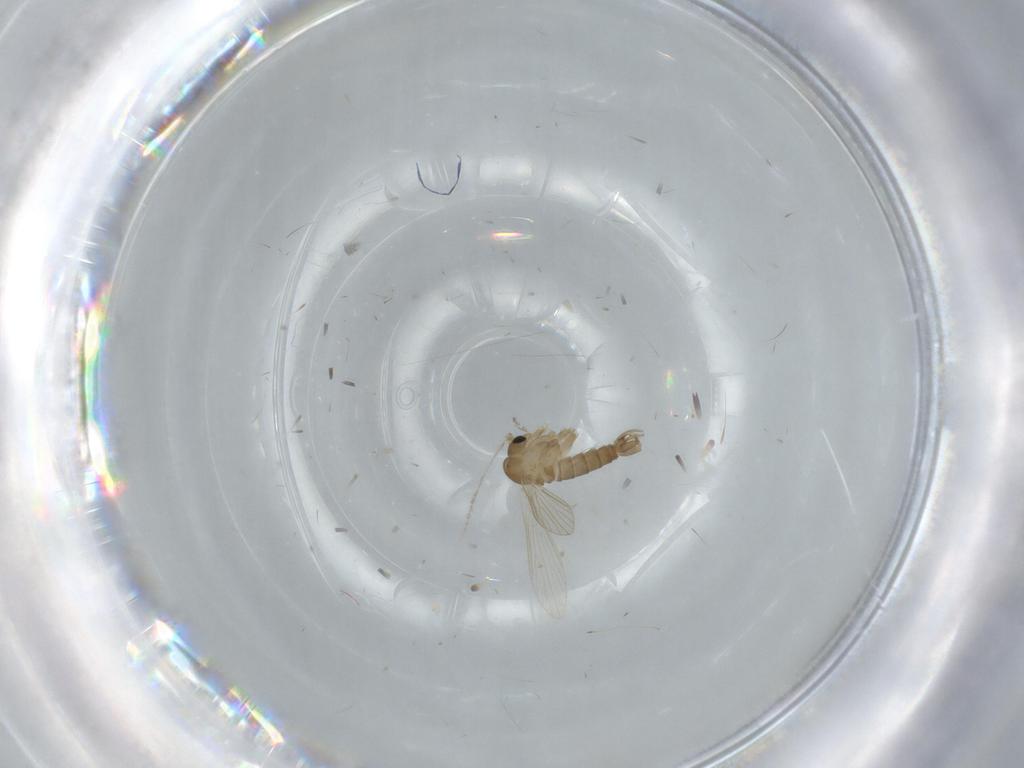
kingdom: Animalia
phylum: Arthropoda
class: Insecta
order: Diptera
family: Psychodidae
